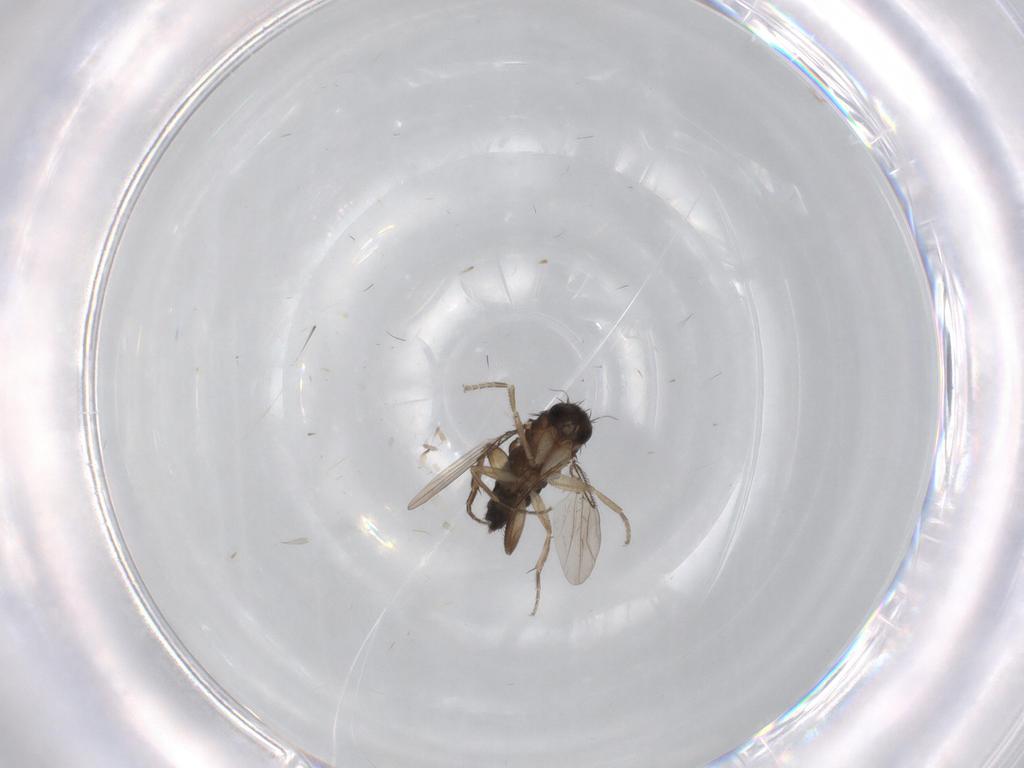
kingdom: Animalia
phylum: Arthropoda
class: Insecta
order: Diptera
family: Phoridae
